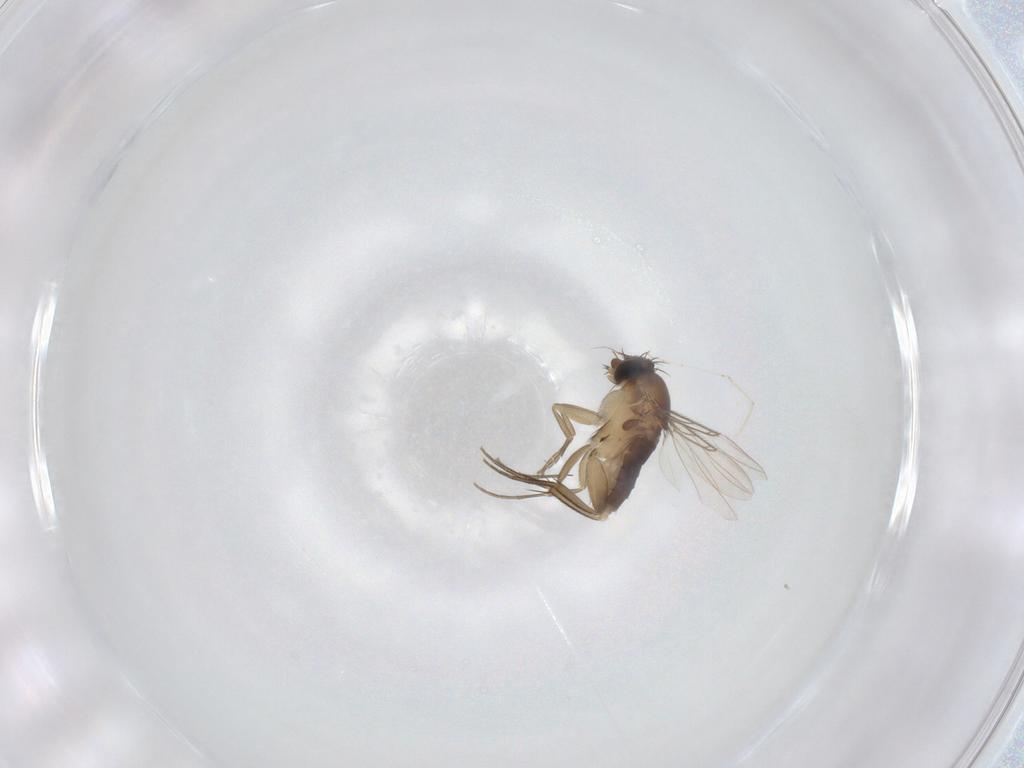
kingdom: Animalia
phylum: Arthropoda
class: Insecta
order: Diptera
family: Phoridae
